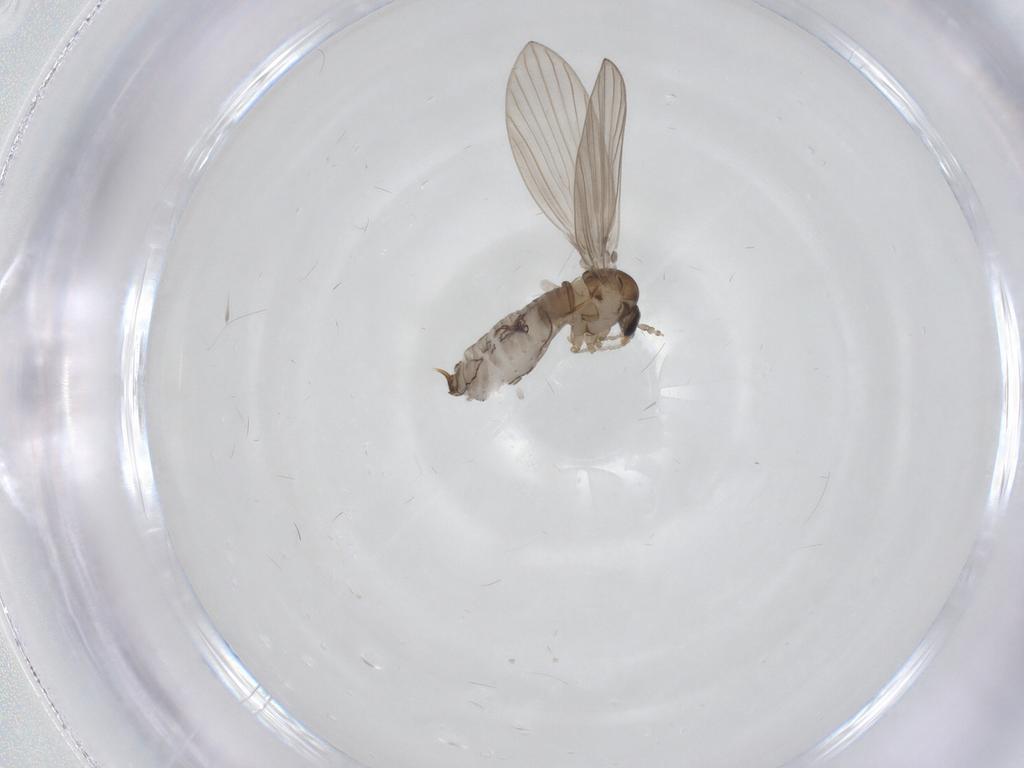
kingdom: Animalia
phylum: Arthropoda
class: Insecta
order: Diptera
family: Psychodidae
